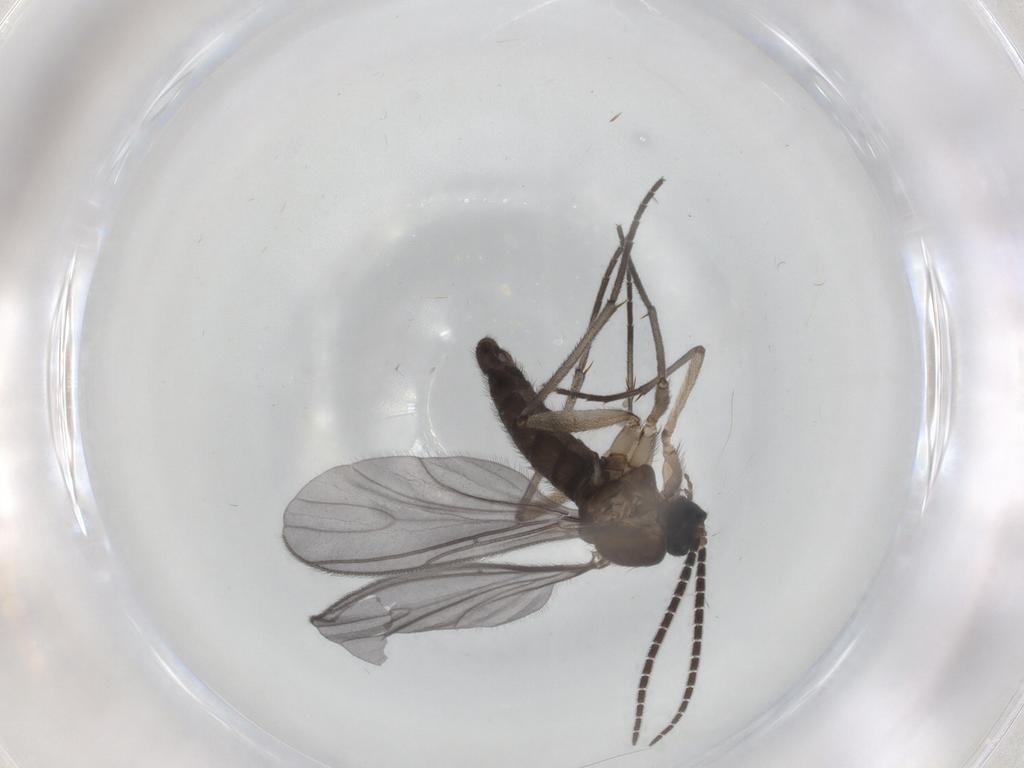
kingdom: Animalia
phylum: Arthropoda
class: Insecta
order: Diptera
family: Sciaridae
